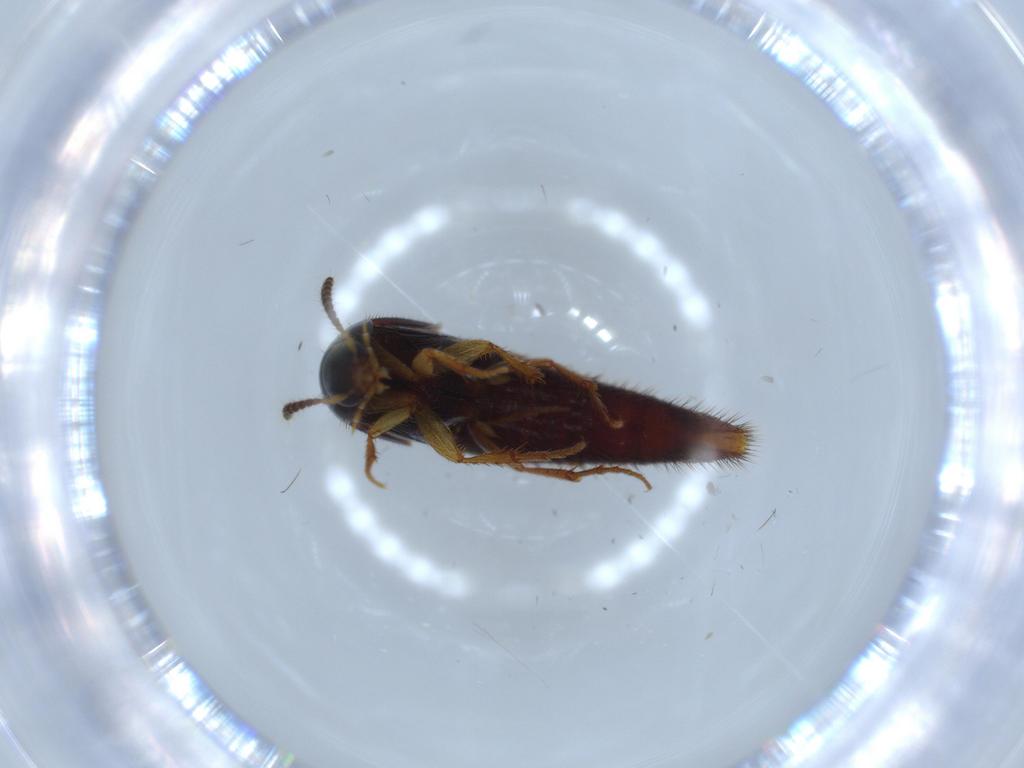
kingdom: Animalia
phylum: Arthropoda
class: Insecta
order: Coleoptera
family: Staphylinidae
